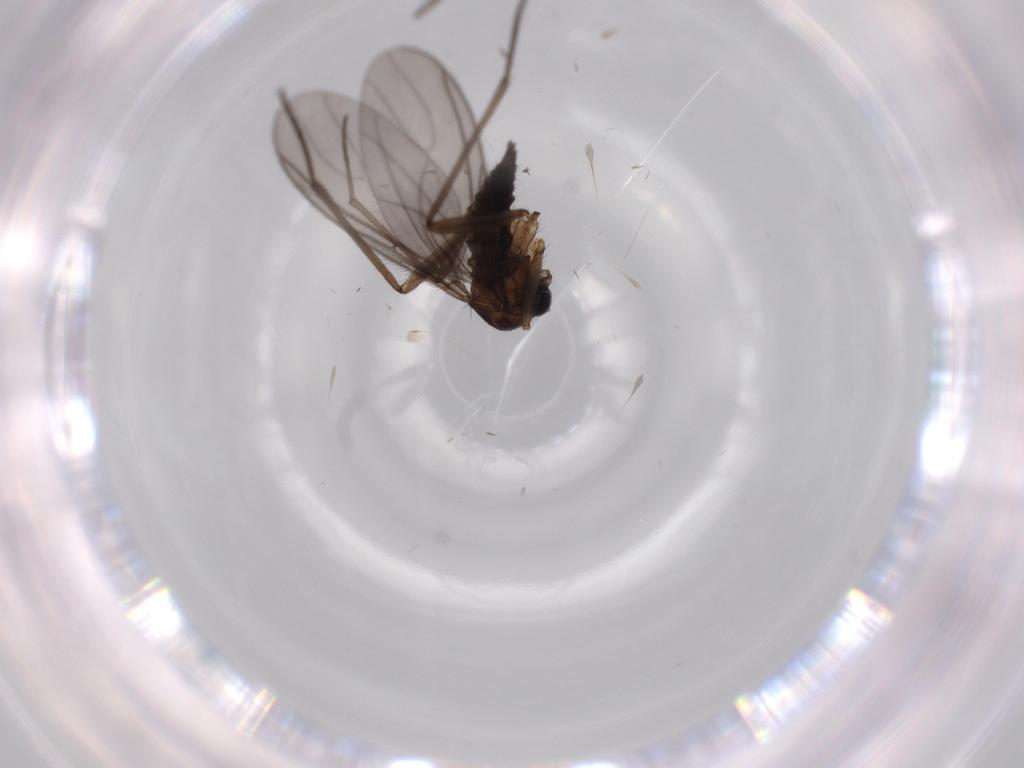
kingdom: Animalia
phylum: Arthropoda
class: Insecta
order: Diptera
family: Sciaridae
